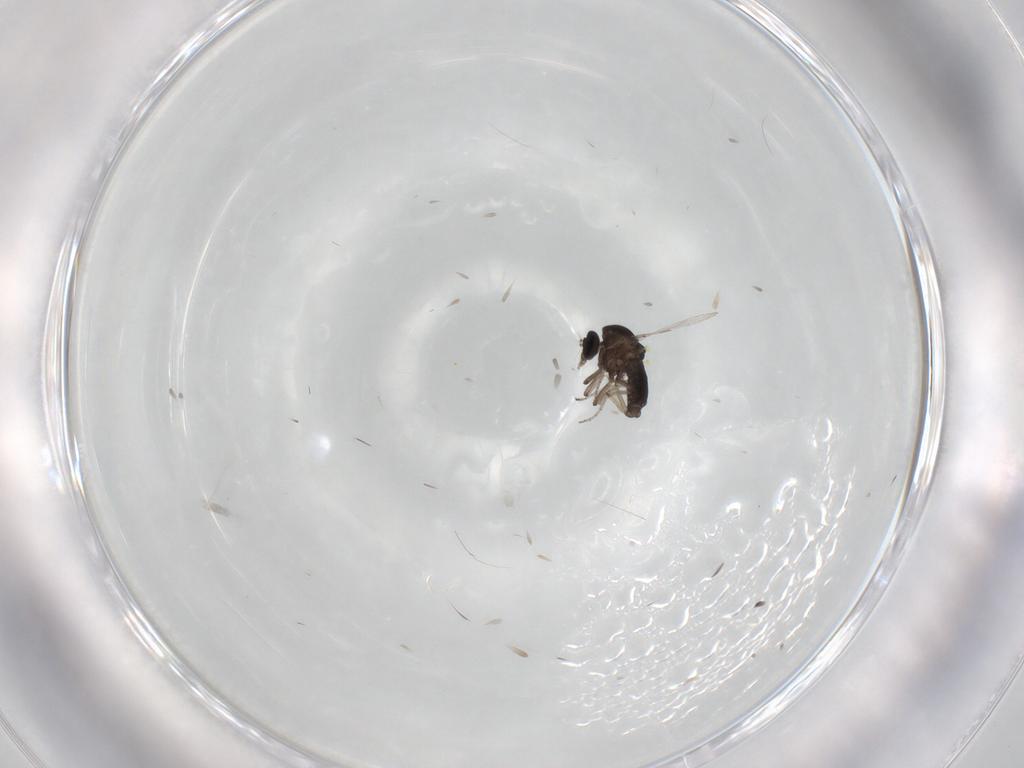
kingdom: Animalia
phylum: Arthropoda
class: Insecta
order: Diptera
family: Ceratopogonidae
